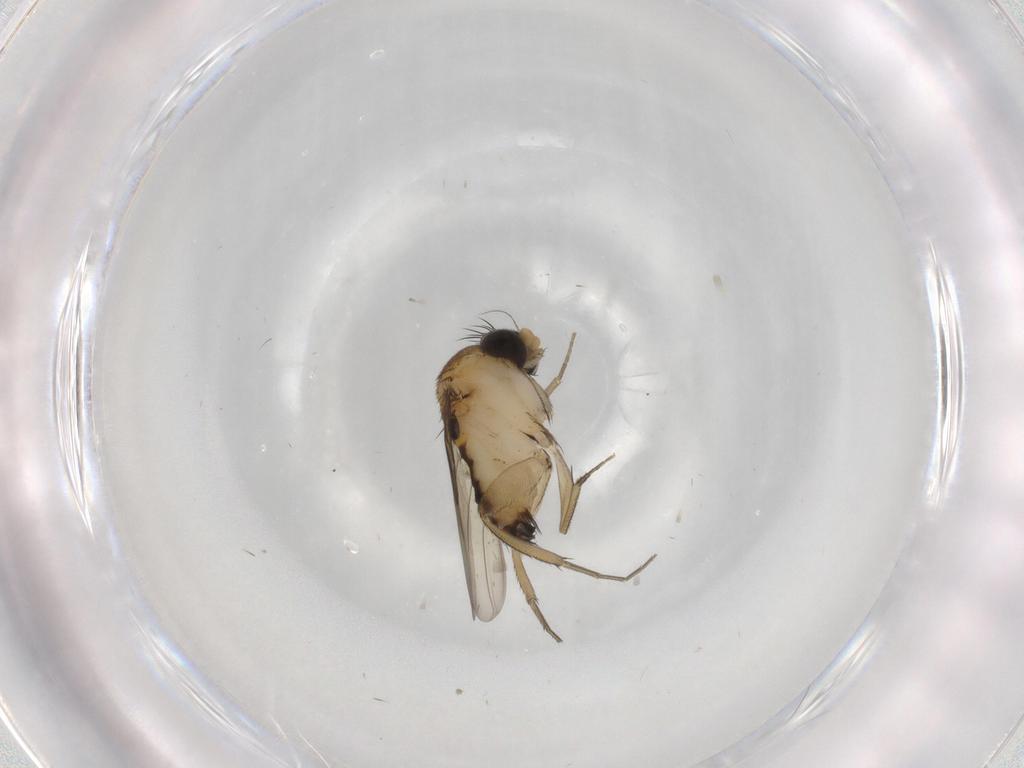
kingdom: Animalia
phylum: Arthropoda
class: Insecta
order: Diptera
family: Phoridae
